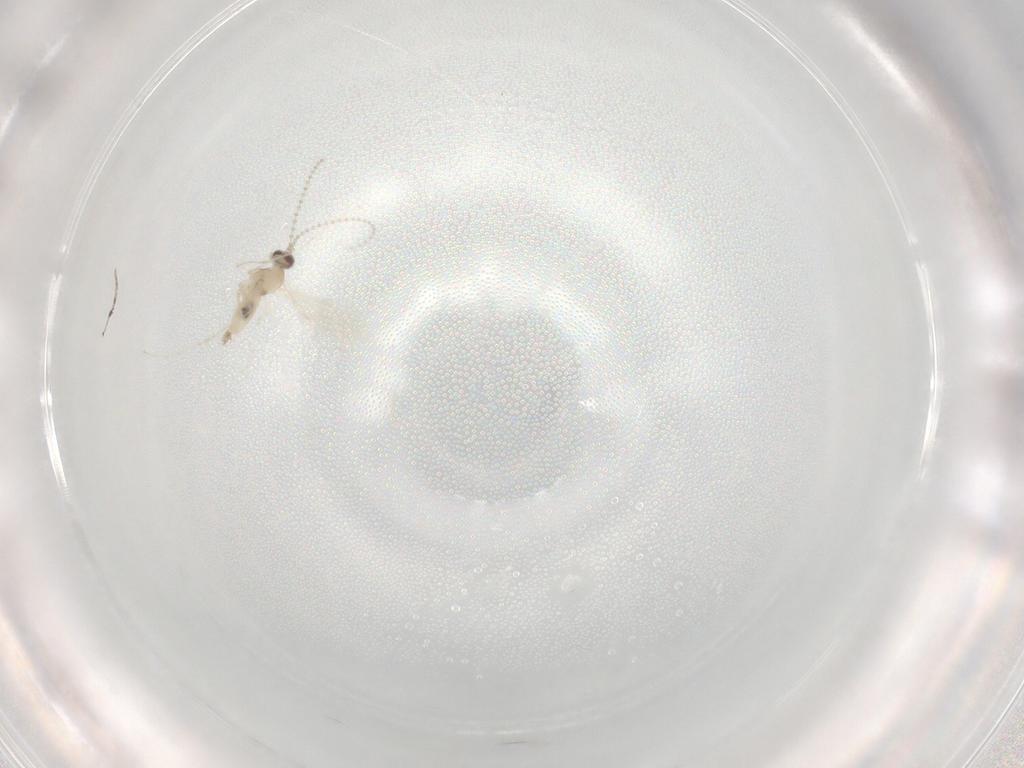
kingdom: Animalia
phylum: Arthropoda
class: Insecta
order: Diptera
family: Cecidomyiidae
